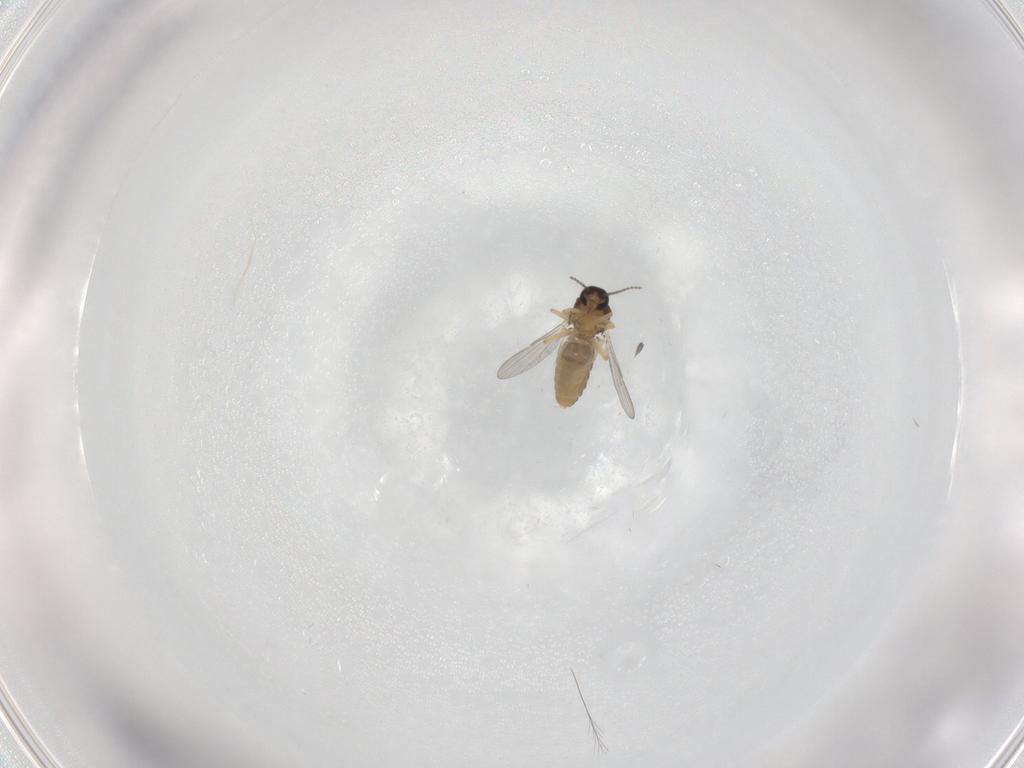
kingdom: Animalia
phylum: Arthropoda
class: Insecta
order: Diptera
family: Ceratopogonidae
